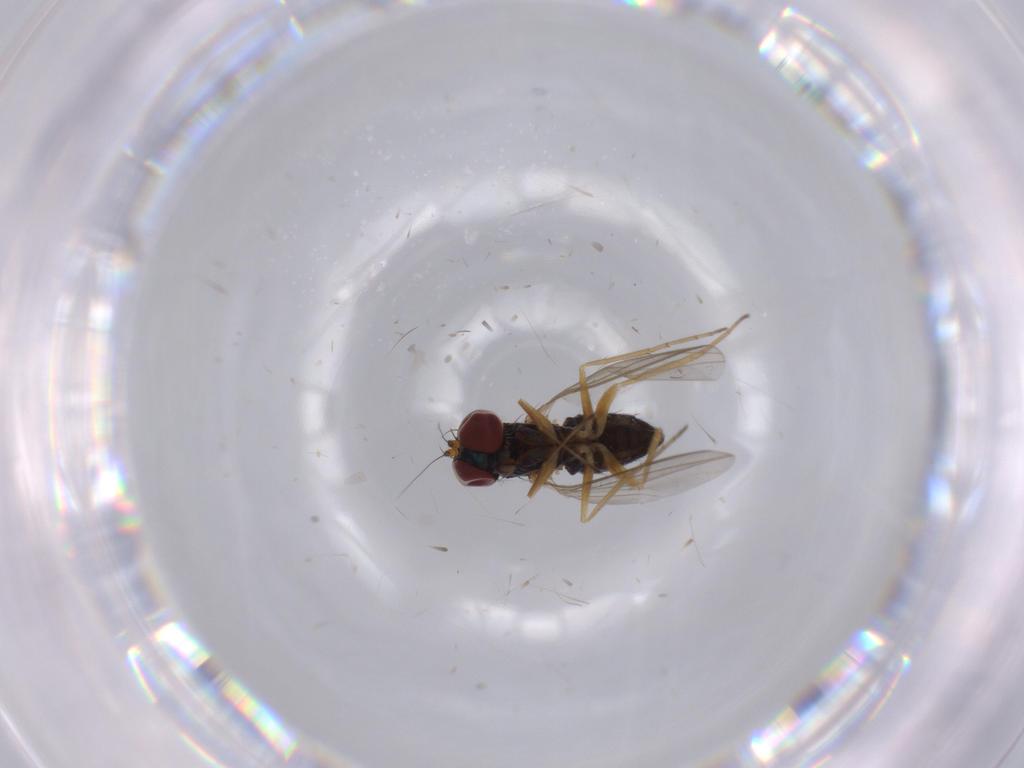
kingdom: Animalia
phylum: Arthropoda
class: Insecta
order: Diptera
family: Dolichopodidae
